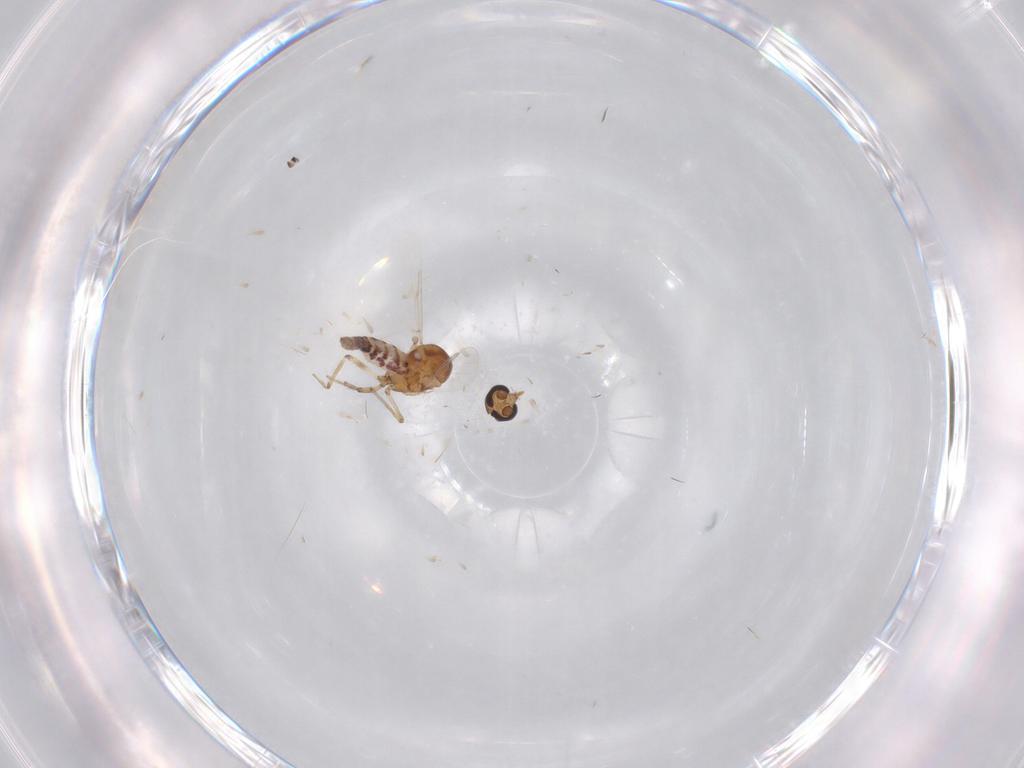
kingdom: Animalia
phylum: Arthropoda
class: Insecta
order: Diptera
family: Ceratopogonidae
